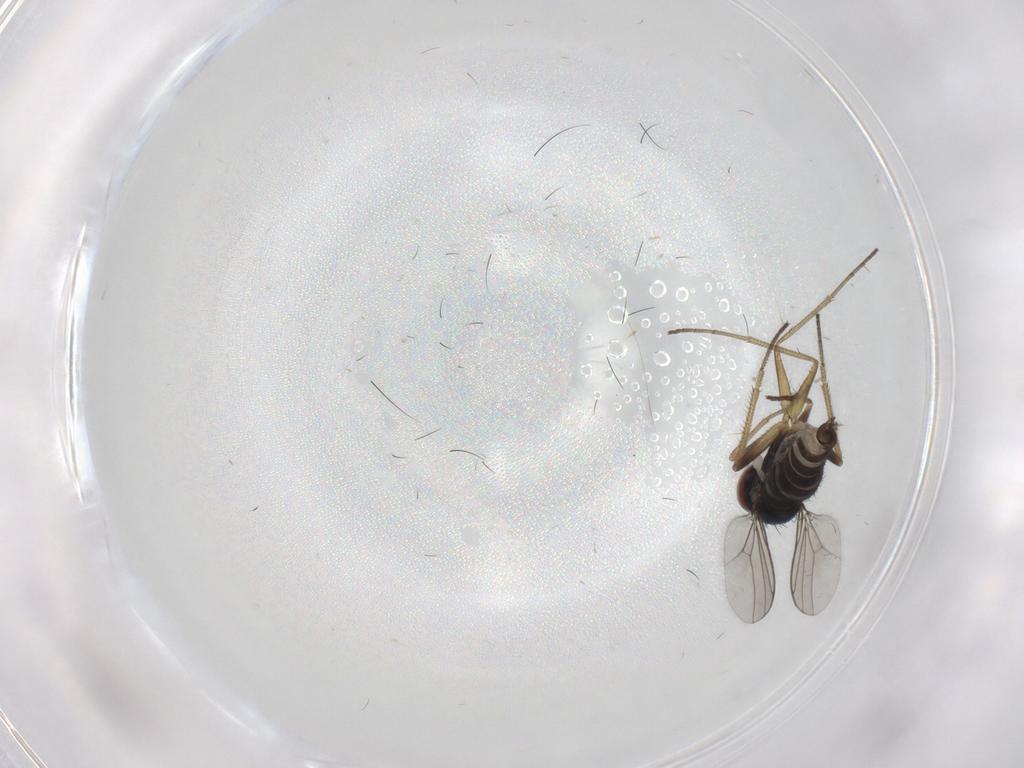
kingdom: Animalia
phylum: Arthropoda
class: Insecta
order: Diptera
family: Dolichopodidae
